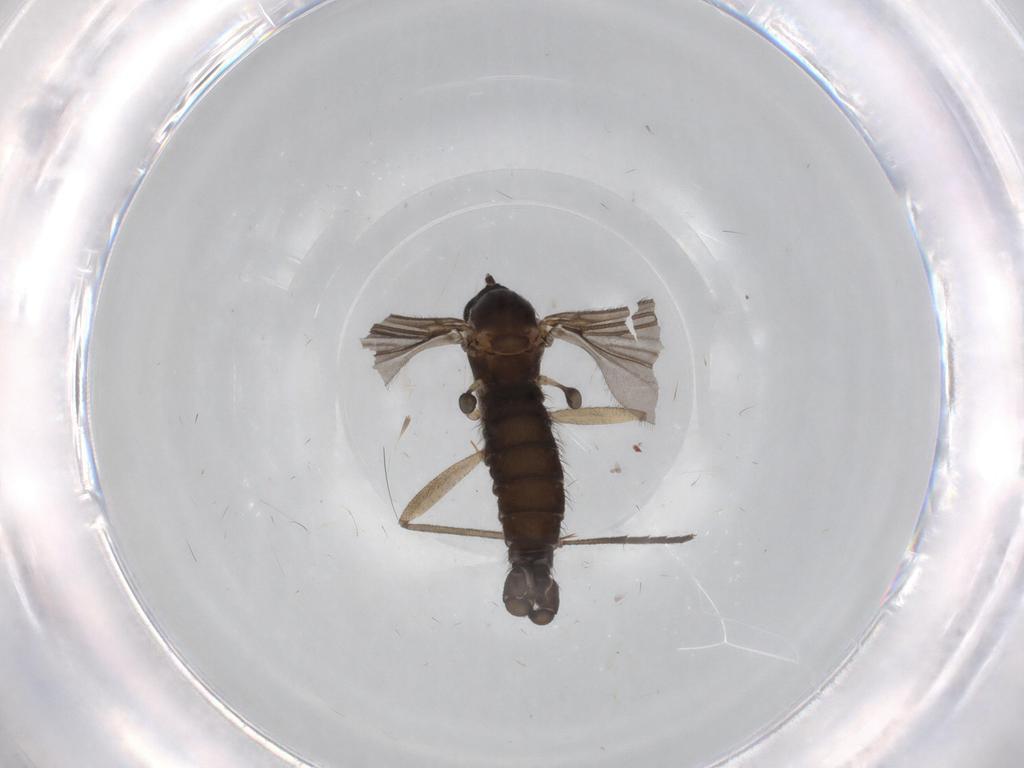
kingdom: Animalia
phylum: Arthropoda
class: Insecta
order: Diptera
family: Sciaridae
